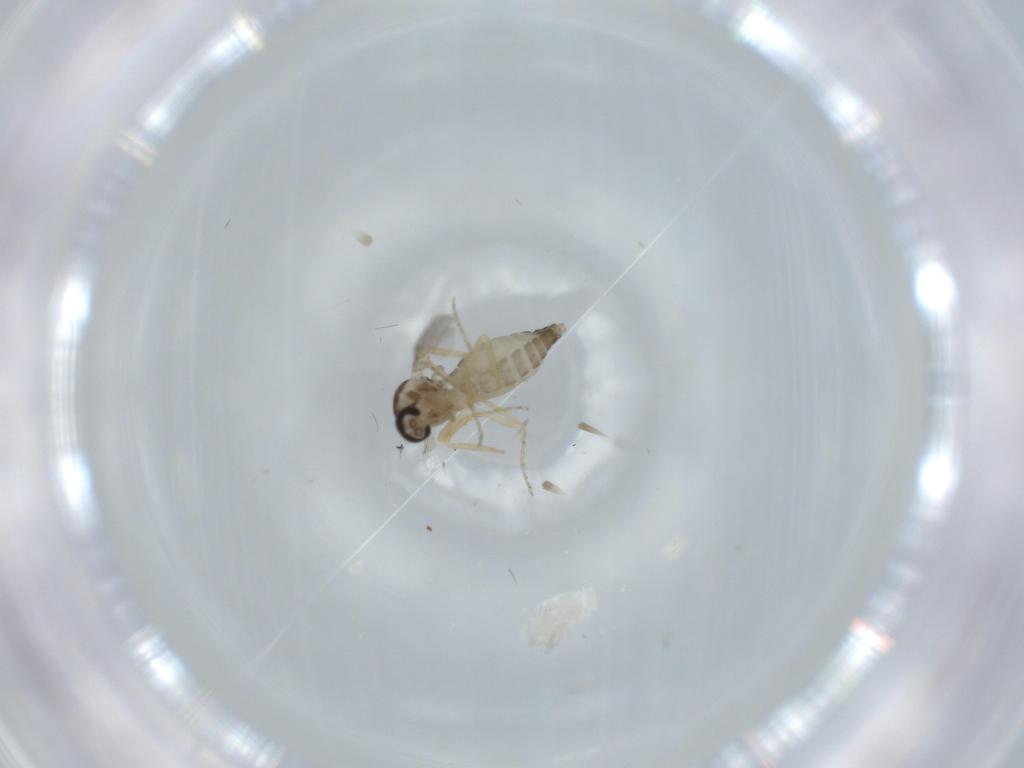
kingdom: Animalia
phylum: Arthropoda
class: Insecta
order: Diptera
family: Ceratopogonidae
